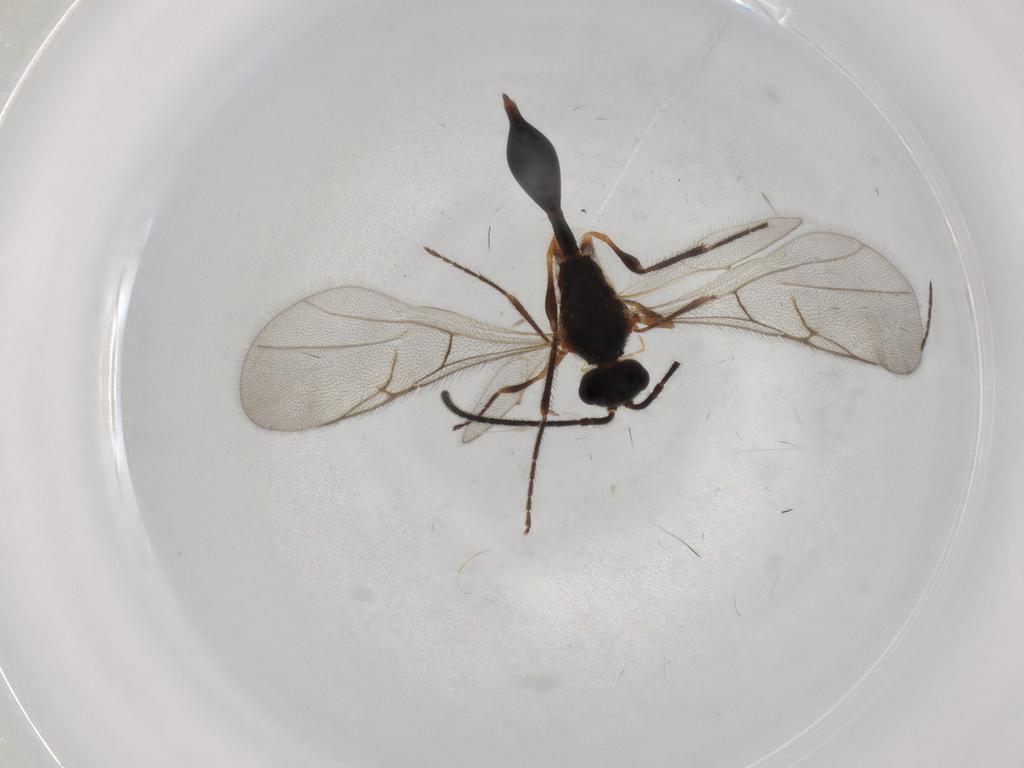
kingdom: Animalia
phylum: Arthropoda
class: Insecta
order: Hymenoptera
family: Diapriidae
